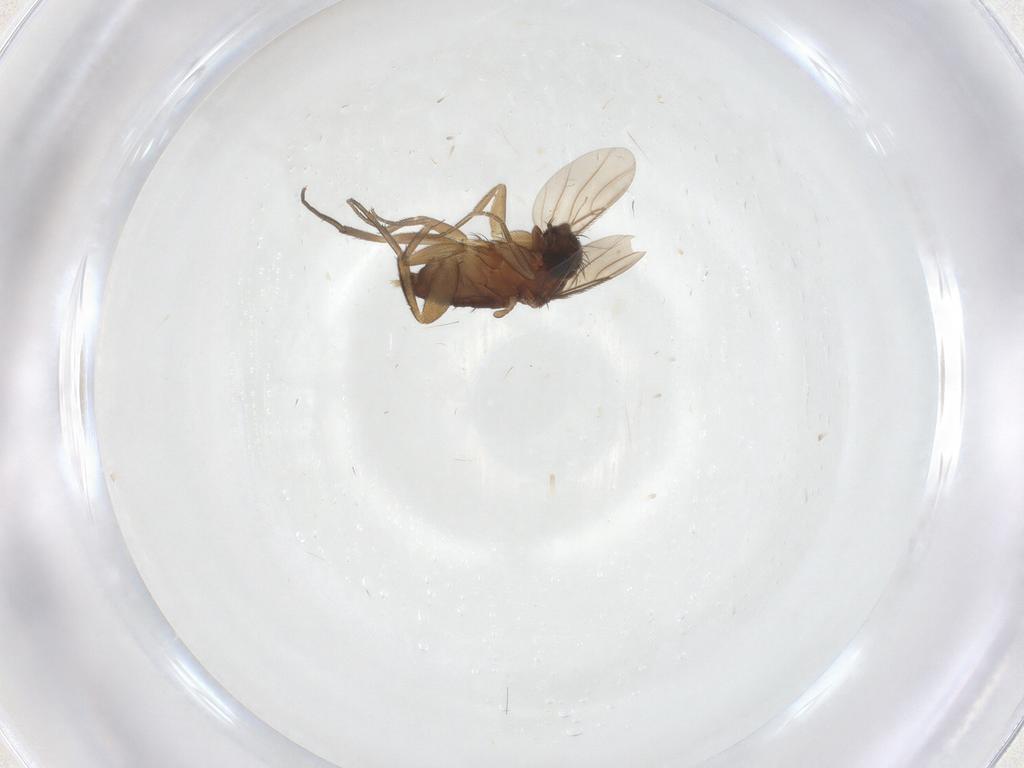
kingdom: Animalia
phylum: Arthropoda
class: Insecta
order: Diptera
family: Phoridae
